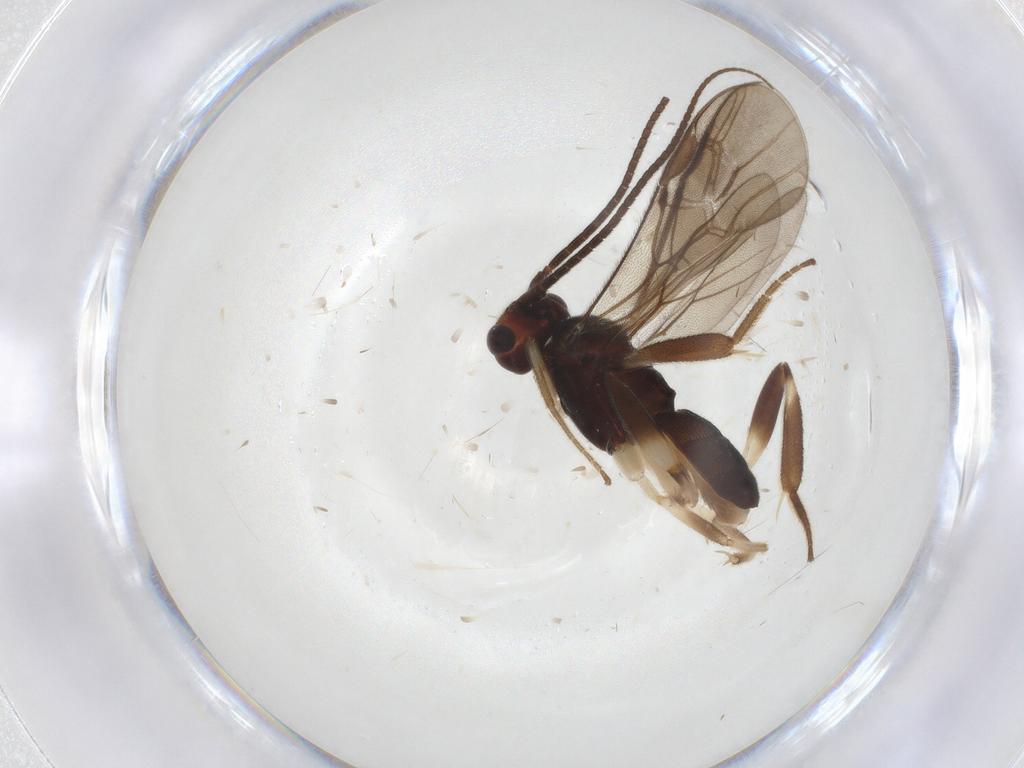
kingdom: Animalia
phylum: Arthropoda
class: Insecta
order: Hymenoptera
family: Braconidae
